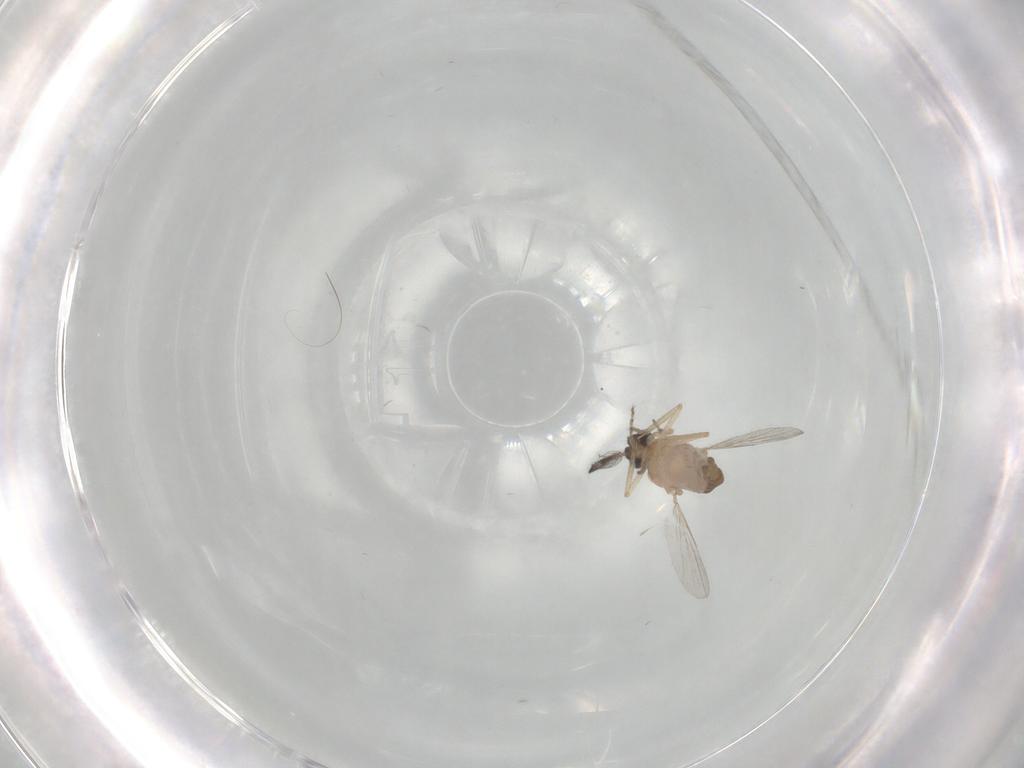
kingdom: Animalia
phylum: Arthropoda
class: Insecta
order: Diptera
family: Ceratopogonidae
